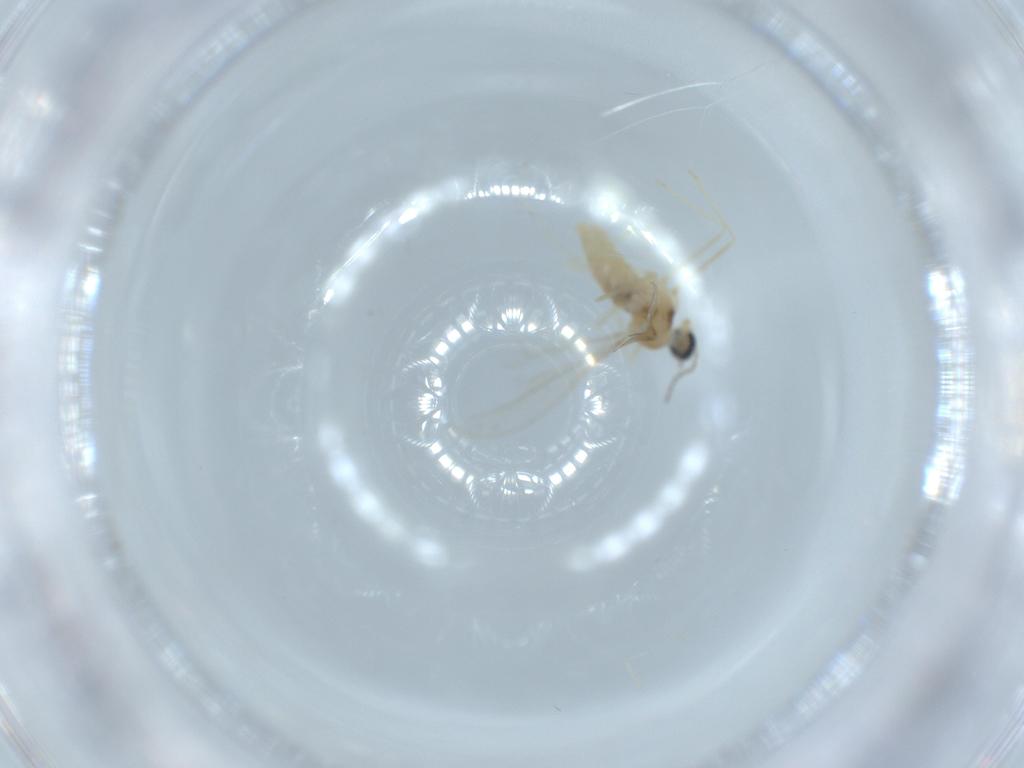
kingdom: Animalia
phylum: Arthropoda
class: Insecta
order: Diptera
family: Cecidomyiidae
